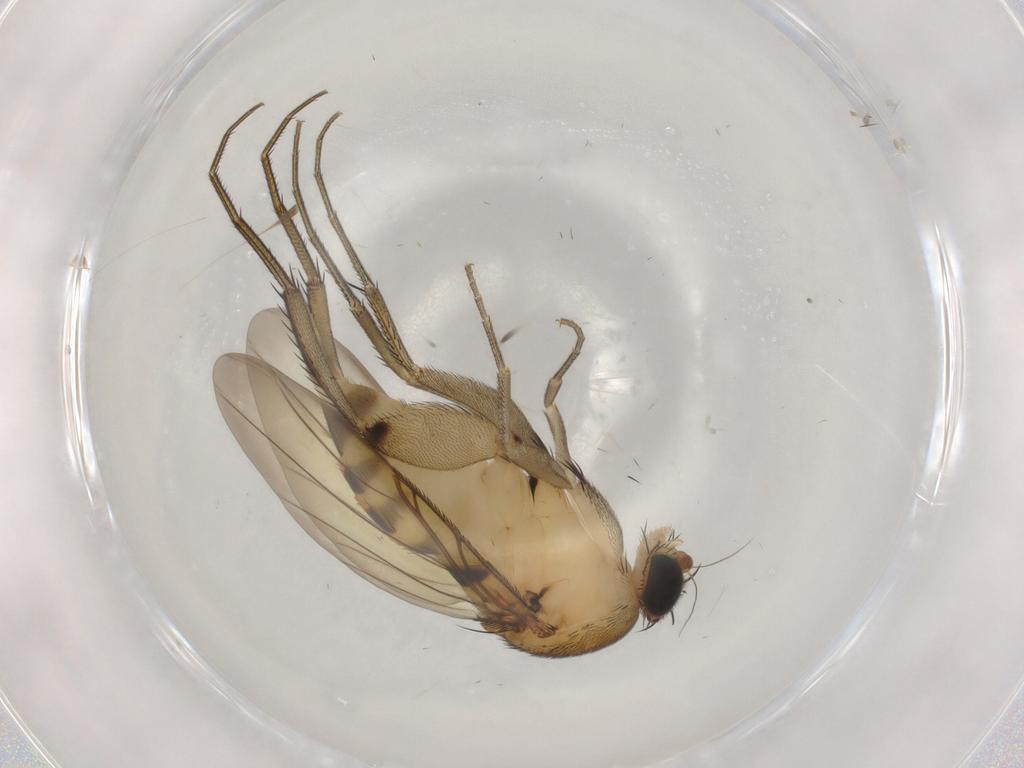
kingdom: Animalia
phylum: Arthropoda
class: Insecta
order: Diptera
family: Phoridae
